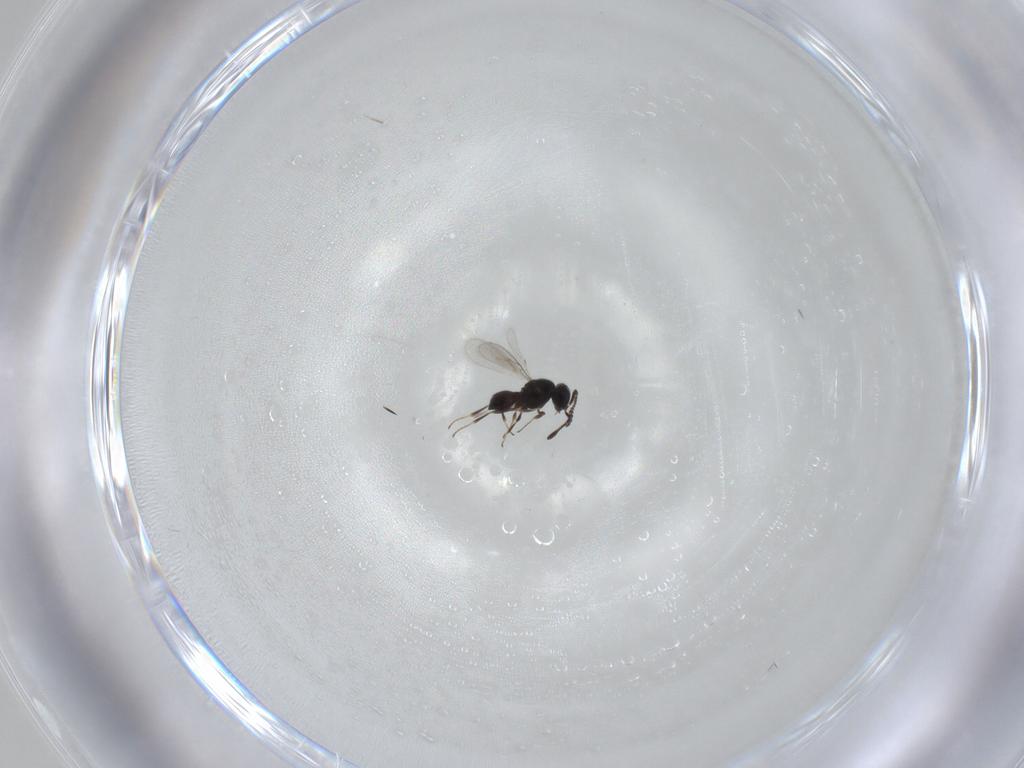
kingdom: Animalia
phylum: Arthropoda
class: Insecta
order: Hymenoptera
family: Scelionidae
